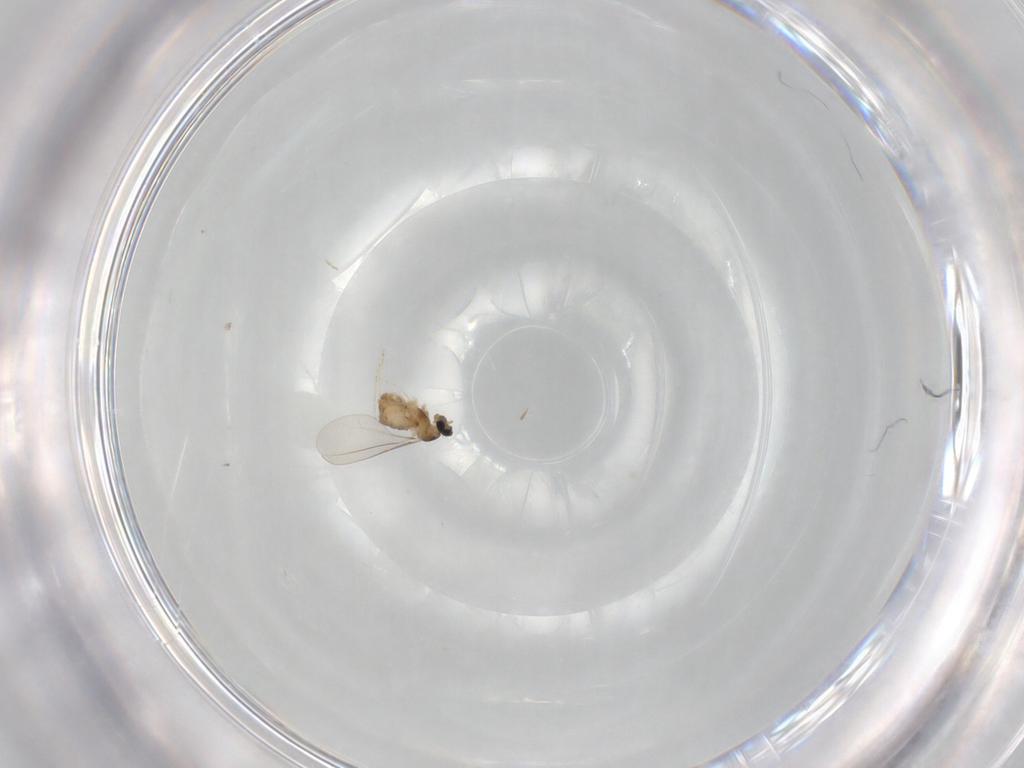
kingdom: Animalia
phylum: Arthropoda
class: Insecta
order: Diptera
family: Cecidomyiidae
